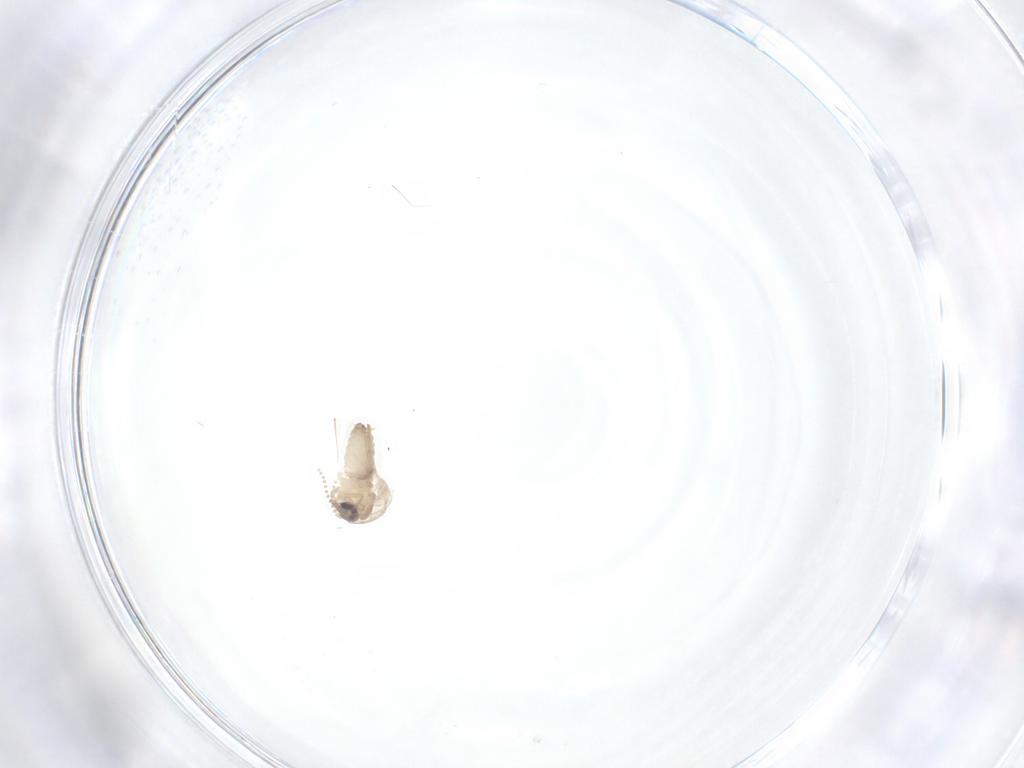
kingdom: Animalia
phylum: Arthropoda
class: Insecta
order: Diptera
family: Psychodidae
